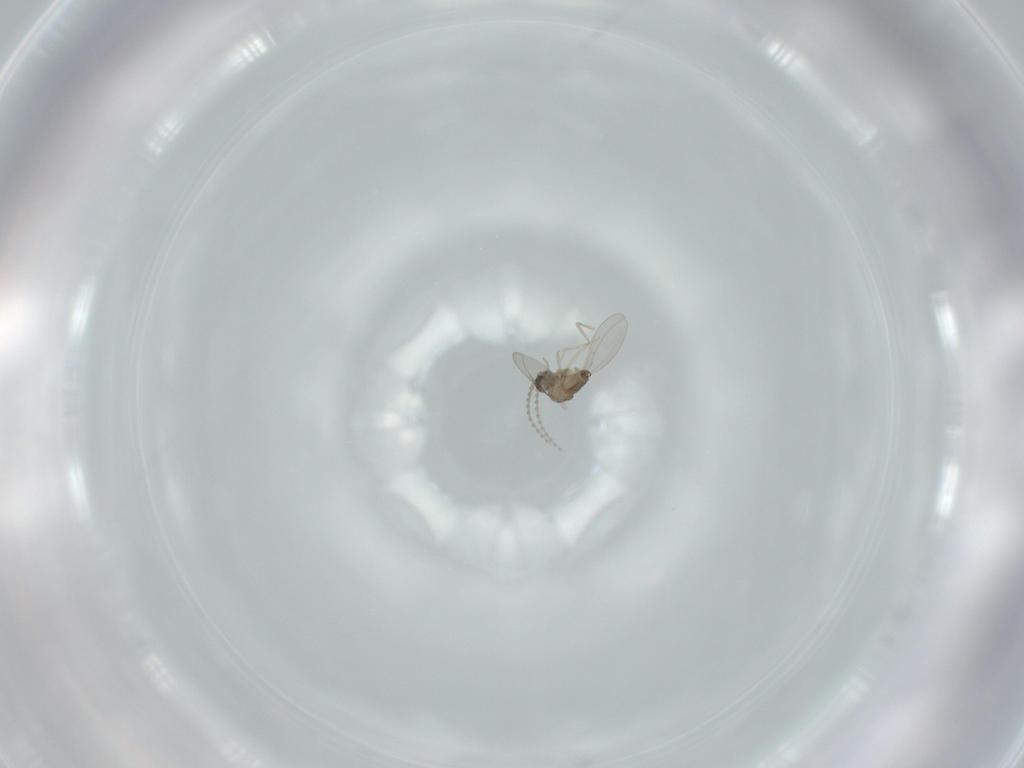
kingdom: Animalia
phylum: Arthropoda
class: Insecta
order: Diptera
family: Cecidomyiidae
